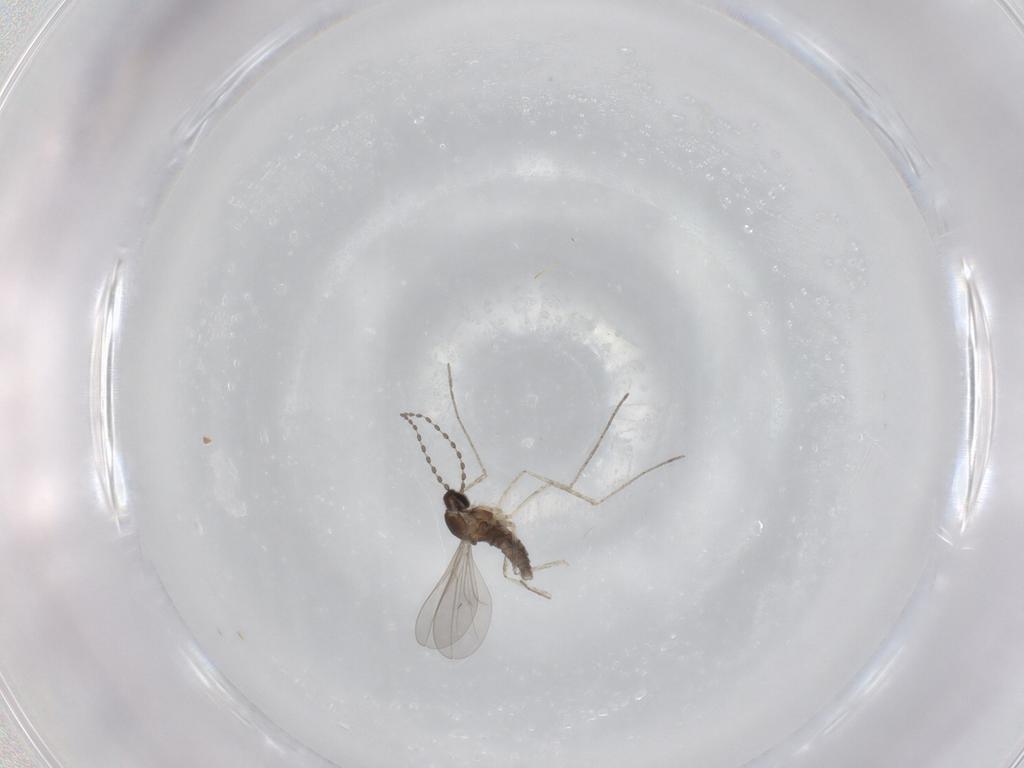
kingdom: Animalia
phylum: Arthropoda
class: Insecta
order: Diptera
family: Cecidomyiidae
